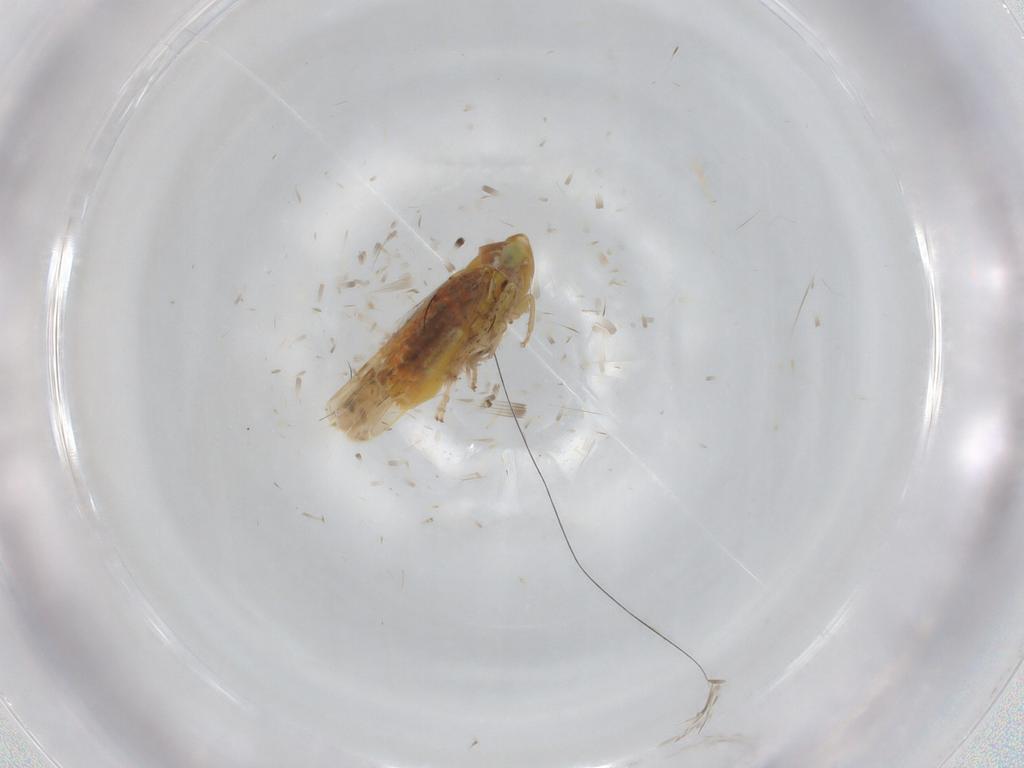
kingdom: Animalia
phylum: Arthropoda
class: Insecta
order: Hemiptera
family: Cicadellidae
